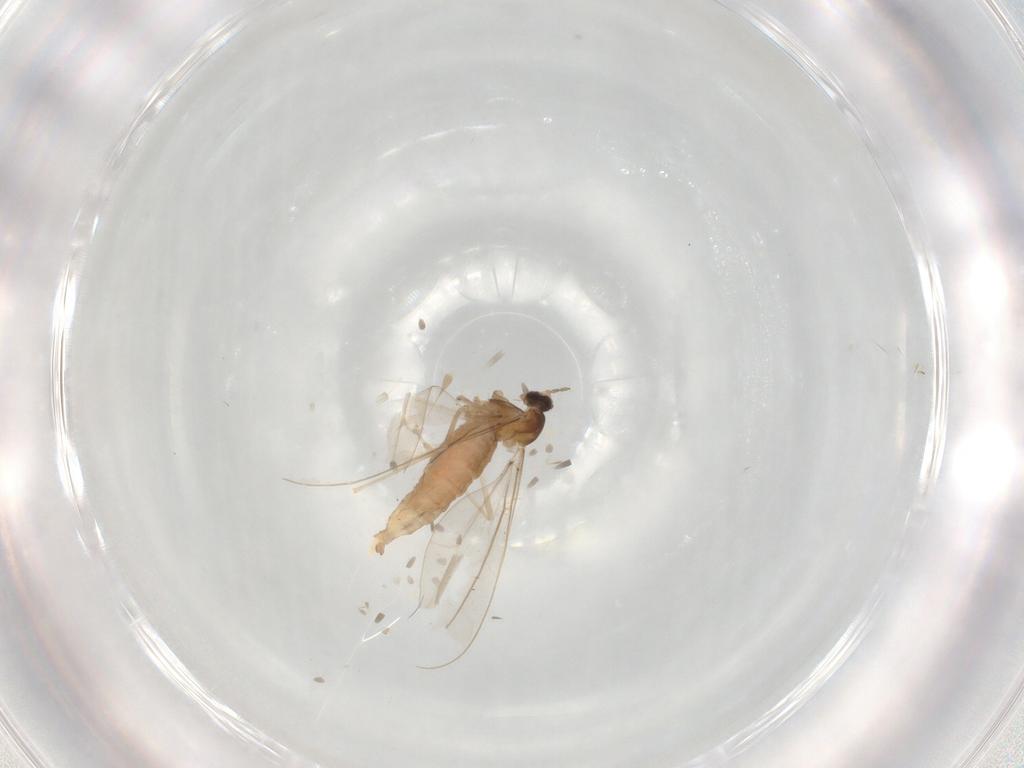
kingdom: Animalia
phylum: Arthropoda
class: Insecta
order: Diptera
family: Cecidomyiidae
